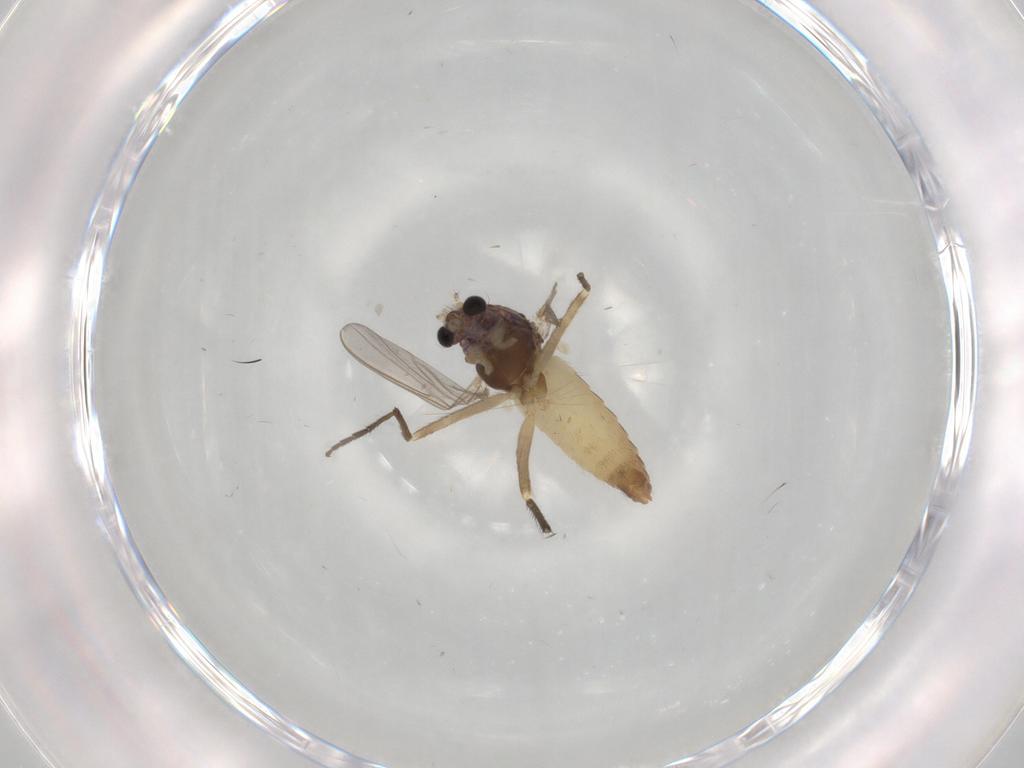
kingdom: Animalia
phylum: Arthropoda
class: Insecta
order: Diptera
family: Chironomidae
